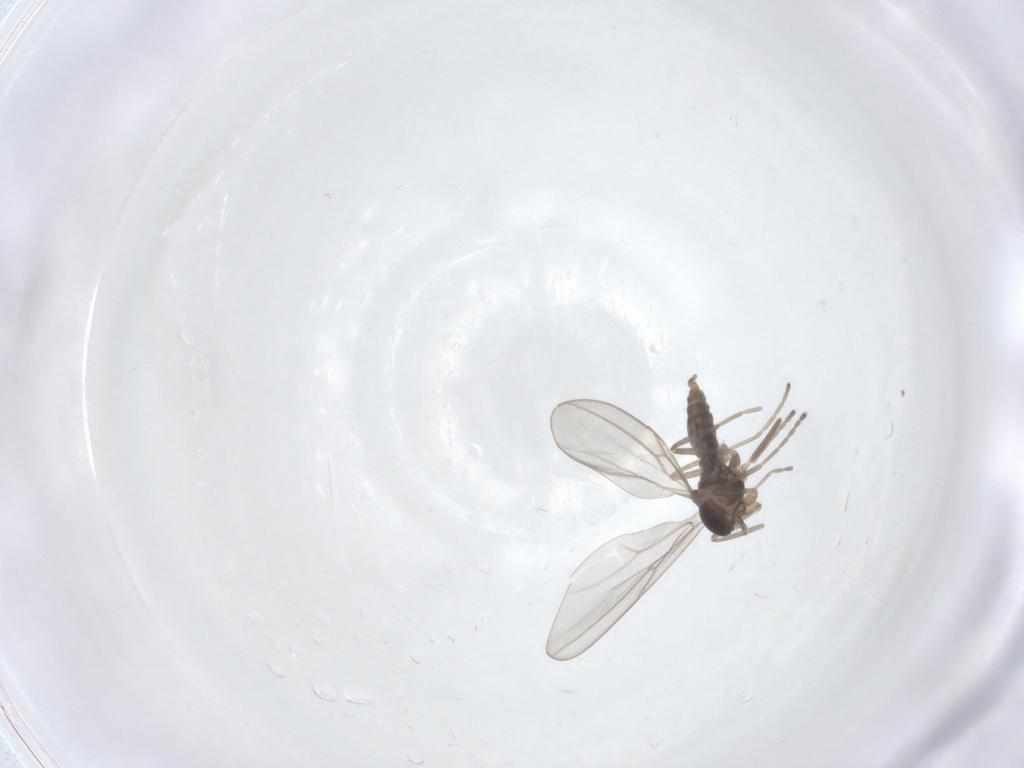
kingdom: Animalia
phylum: Arthropoda
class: Insecta
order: Diptera
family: Cecidomyiidae
